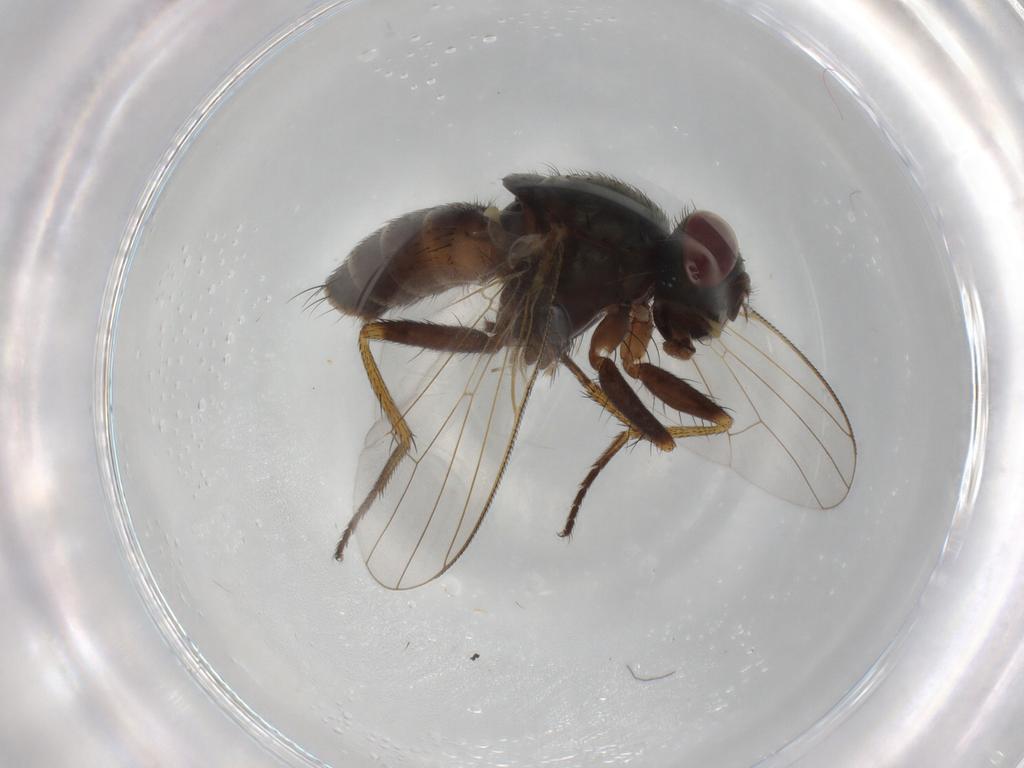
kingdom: Animalia
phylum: Arthropoda
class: Insecta
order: Diptera
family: Muscidae
